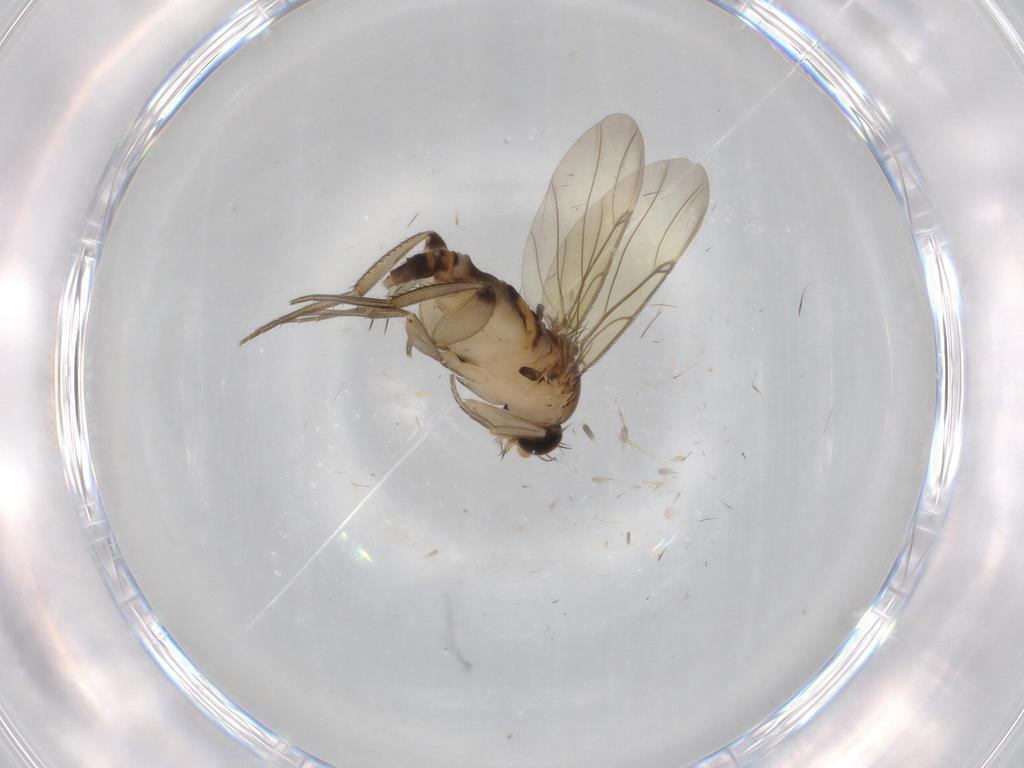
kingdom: Animalia
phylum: Arthropoda
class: Insecta
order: Diptera
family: Phoridae
